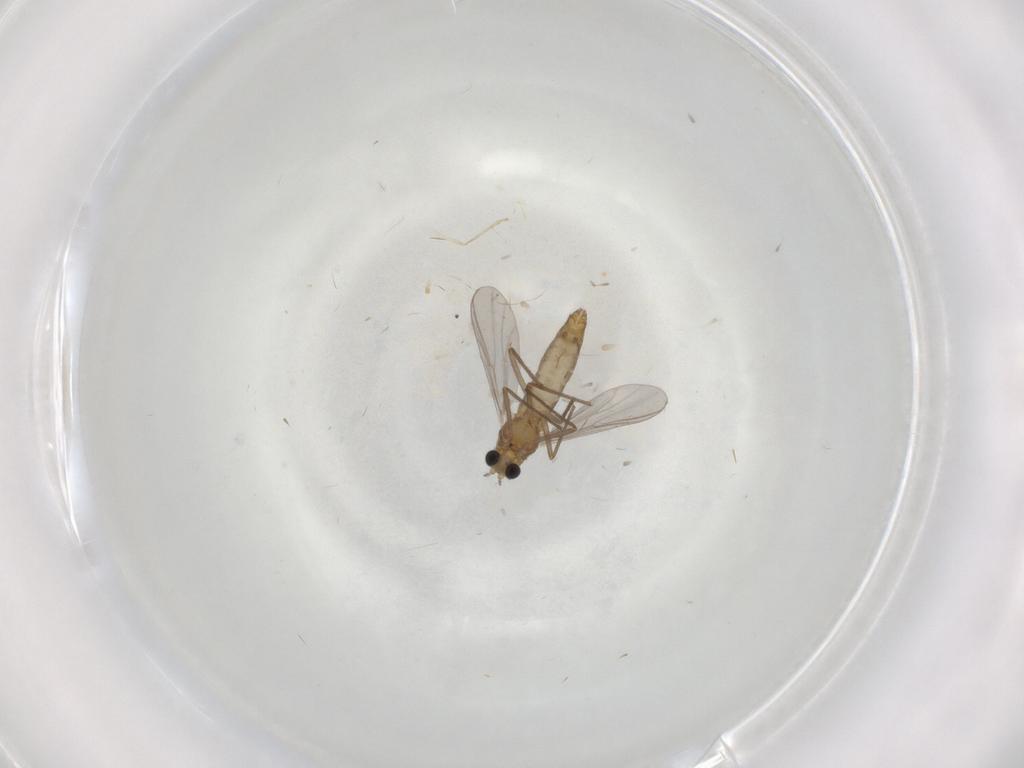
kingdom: Animalia
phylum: Arthropoda
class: Insecta
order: Diptera
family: Chironomidae
